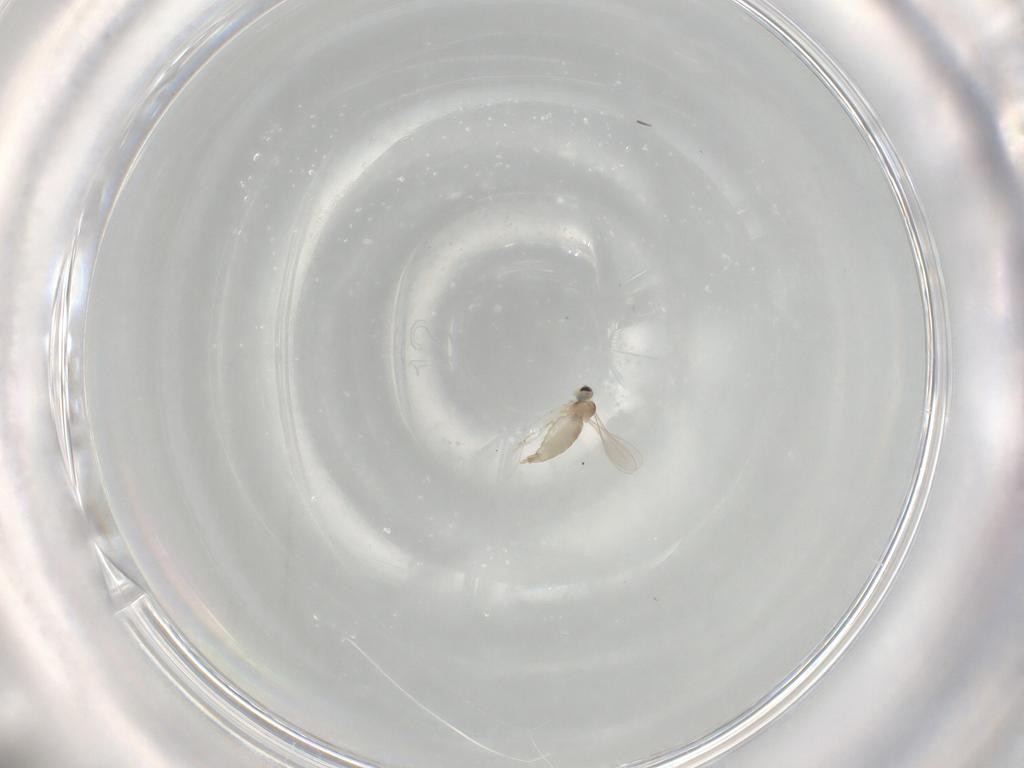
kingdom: Animalia
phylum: Arthropoda
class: Insecta
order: Diptera
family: Cecidomyiidae
